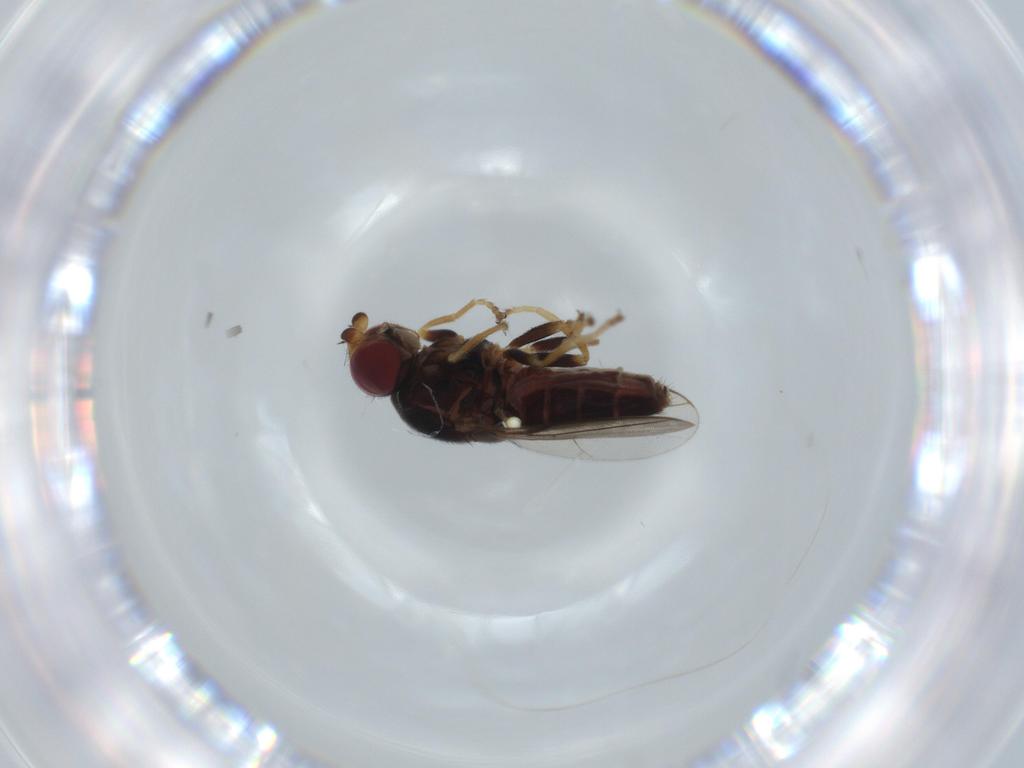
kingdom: Animalia
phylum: Arthropoda
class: Insecta
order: Diptera
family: Chloropidae
